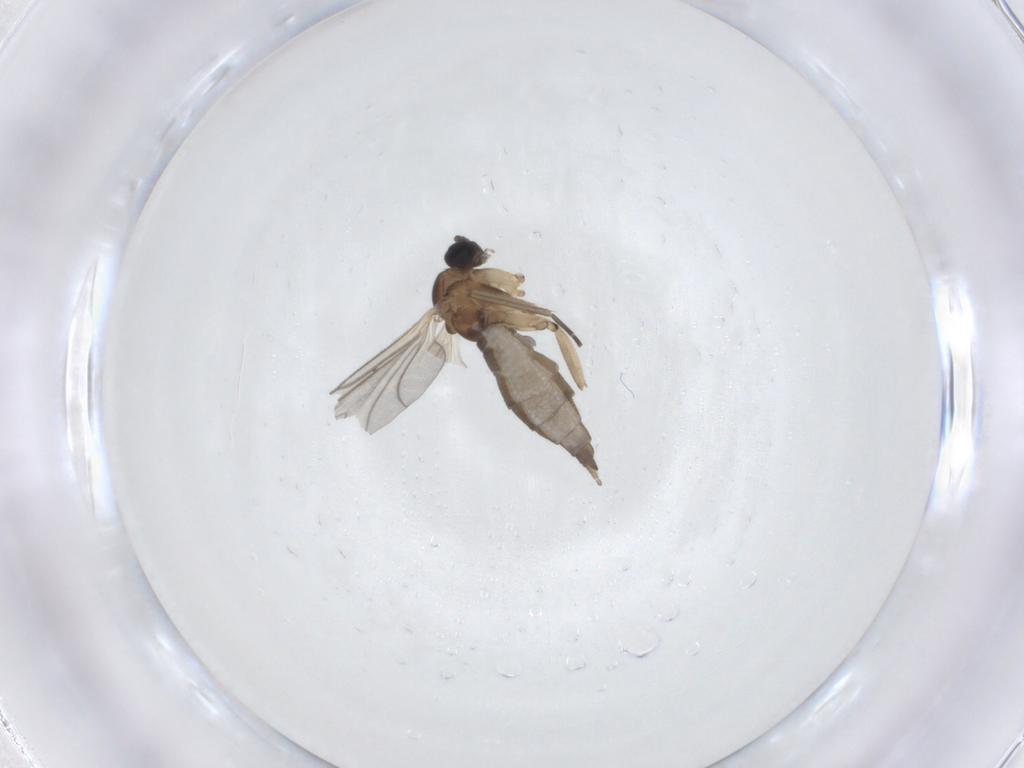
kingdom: Animalia
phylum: Arthropoda
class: Insecta
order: Diptera
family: Sciaridae
